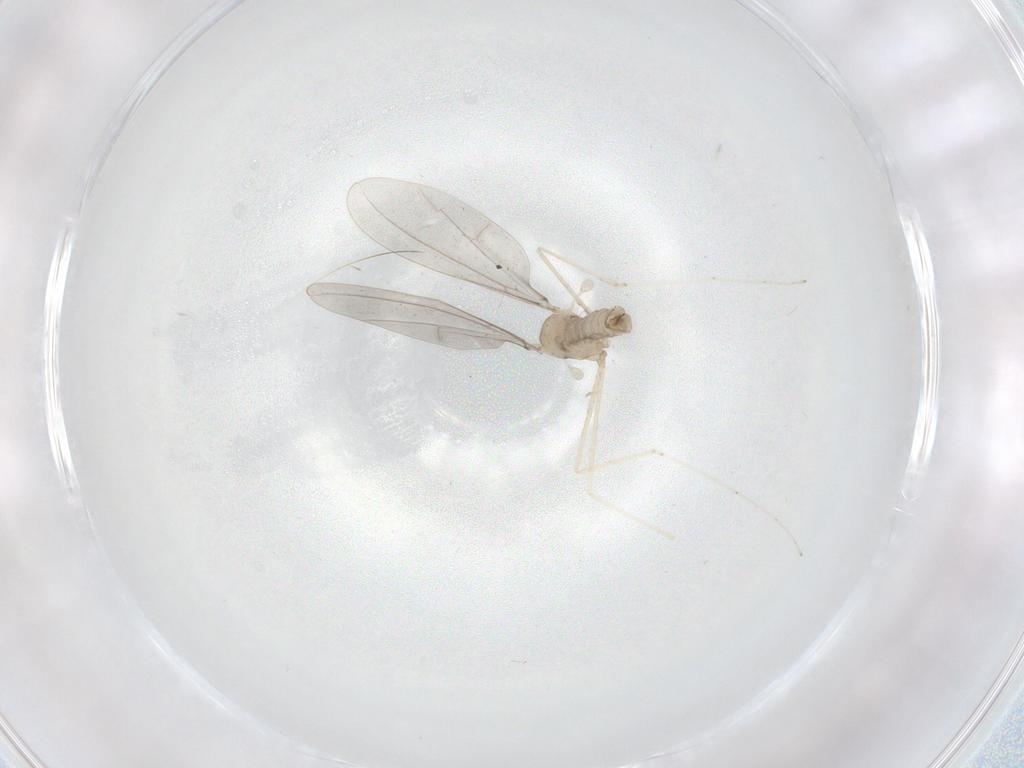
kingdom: Animalia
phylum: Arthropoda
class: Insecta
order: Diptera
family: Cecidomyiidae
